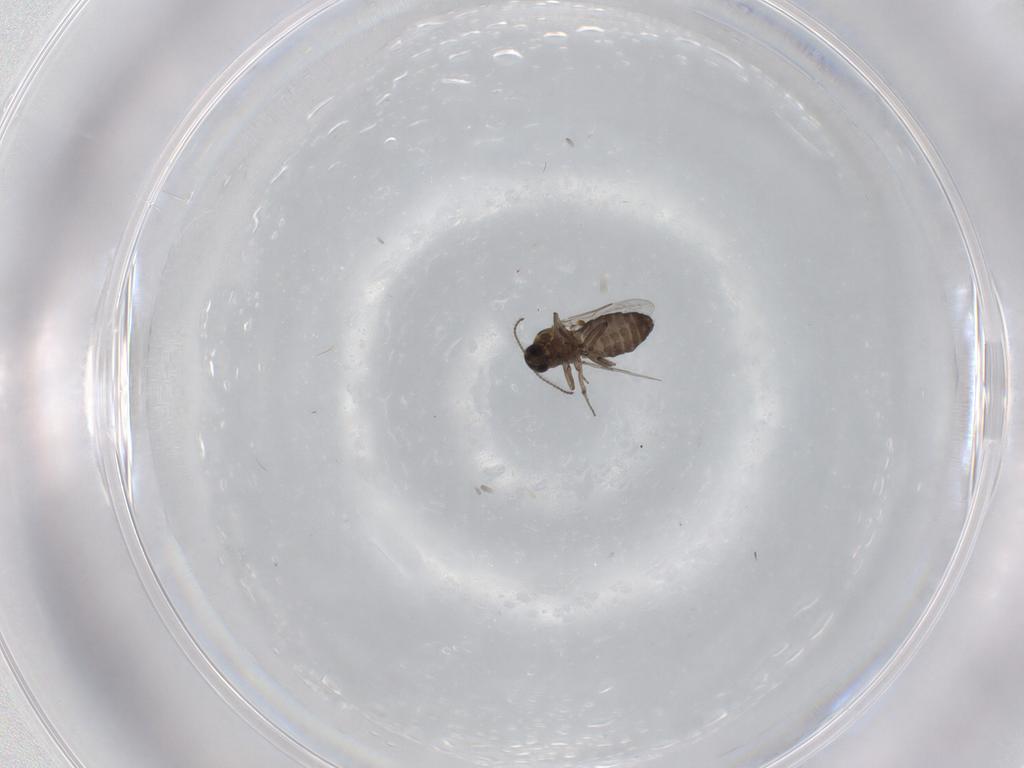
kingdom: Animalia
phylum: Arthropoda
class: Insecta
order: Diptera
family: Ceratopogonidae
